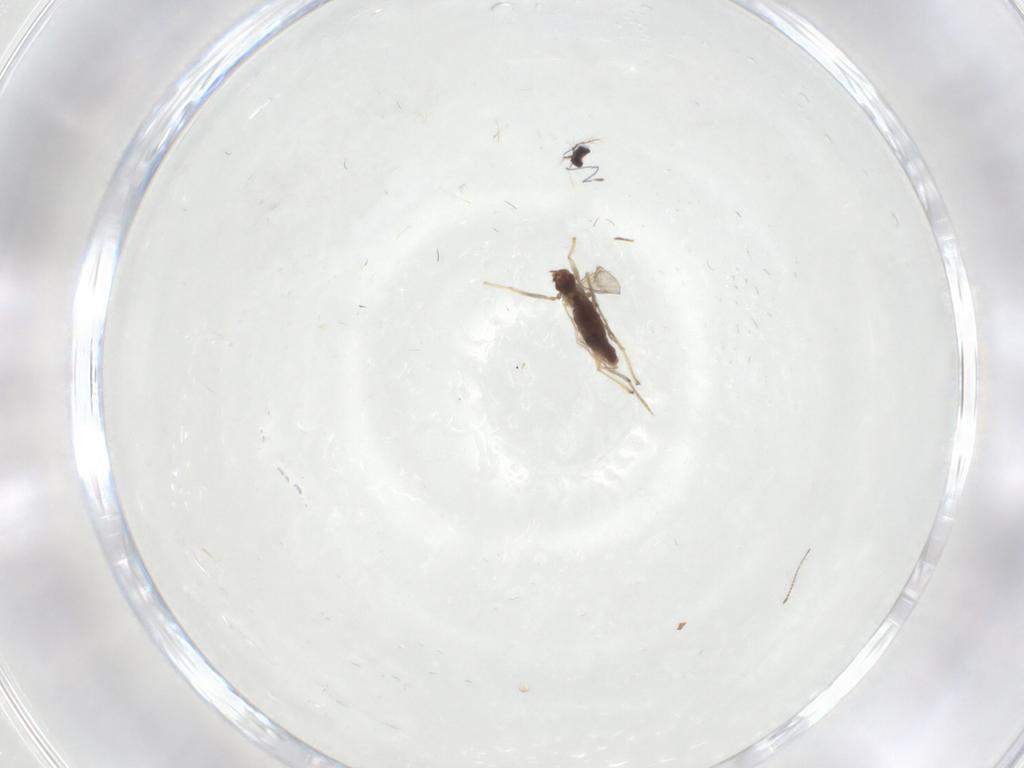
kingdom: Animalia
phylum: Arthropoda
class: Insecta
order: Diptera
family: Chironomidae
